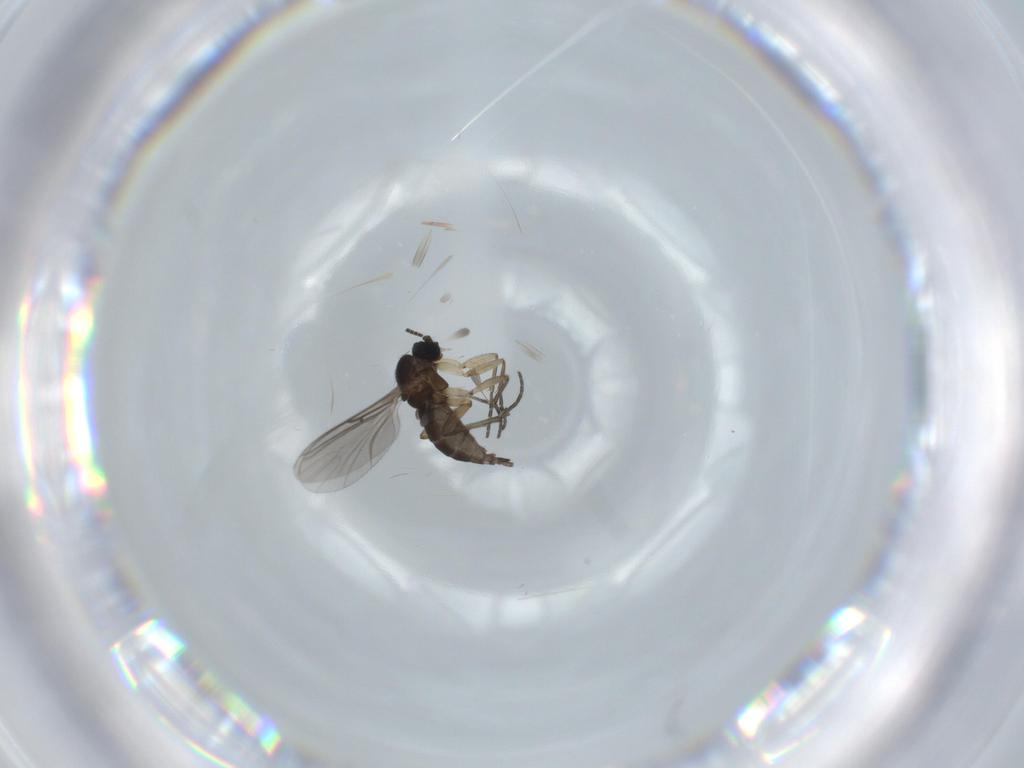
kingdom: Animalia
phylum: Arthropoda
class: Insecta
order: Diptera
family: Sciaridae
